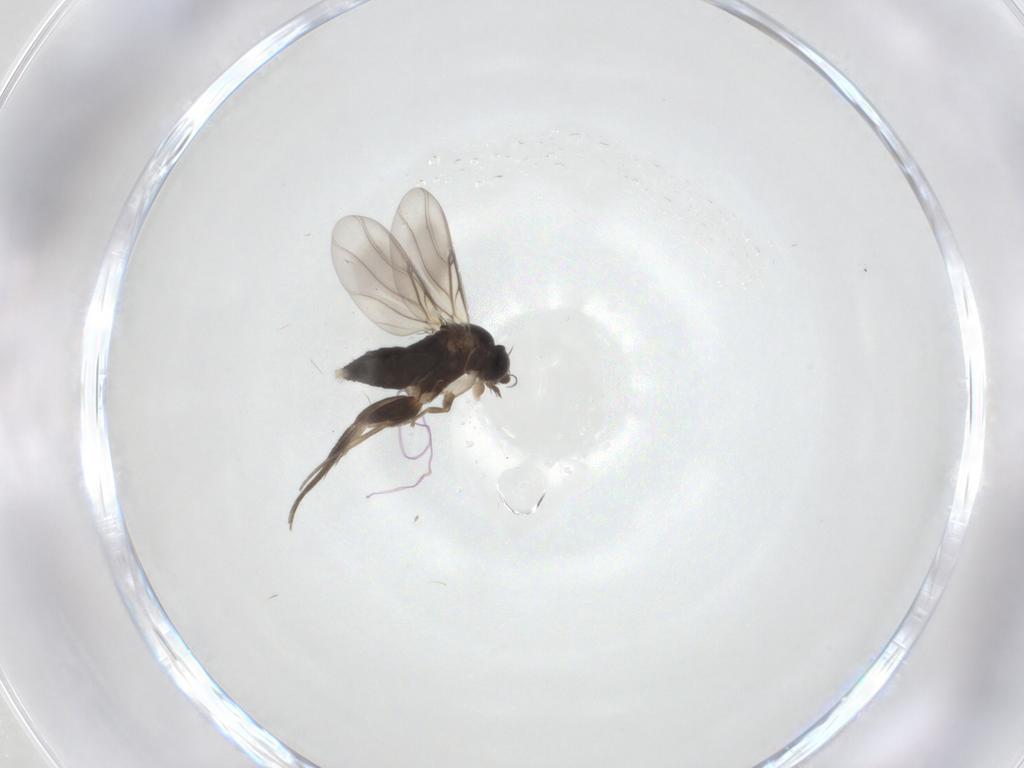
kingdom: Animalia
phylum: Arthropoda
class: Insecta
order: Diptera
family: Phoridae
